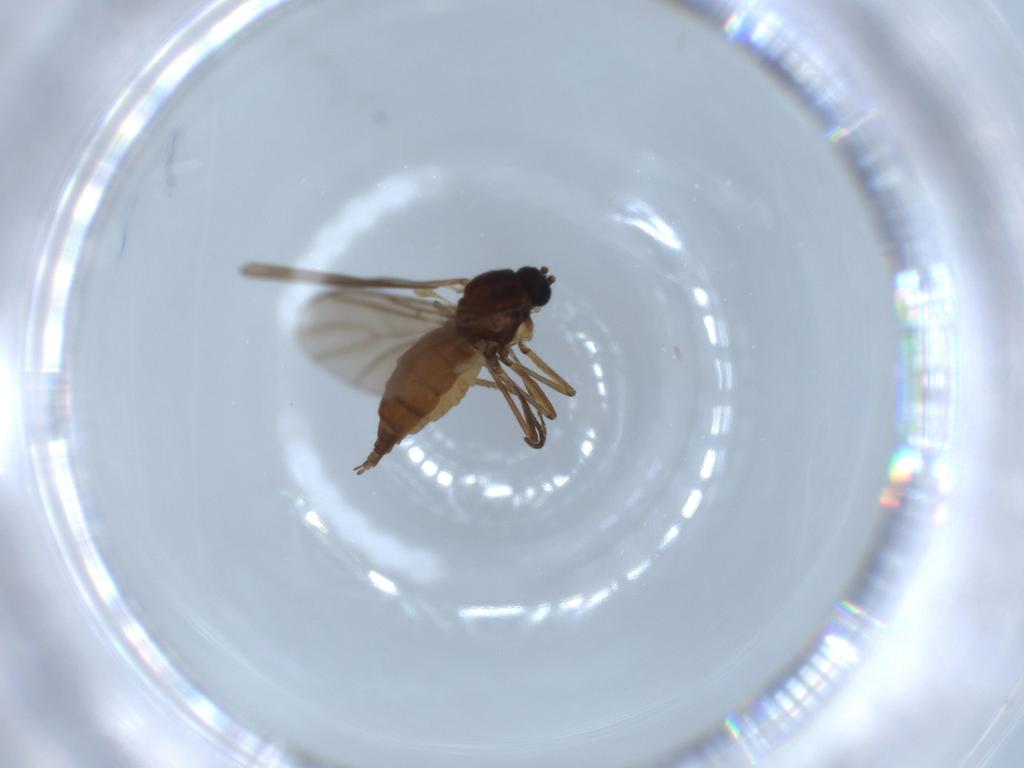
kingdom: Animalia
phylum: Arthropoda
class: Insecta
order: Diptera
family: Sciaridae
